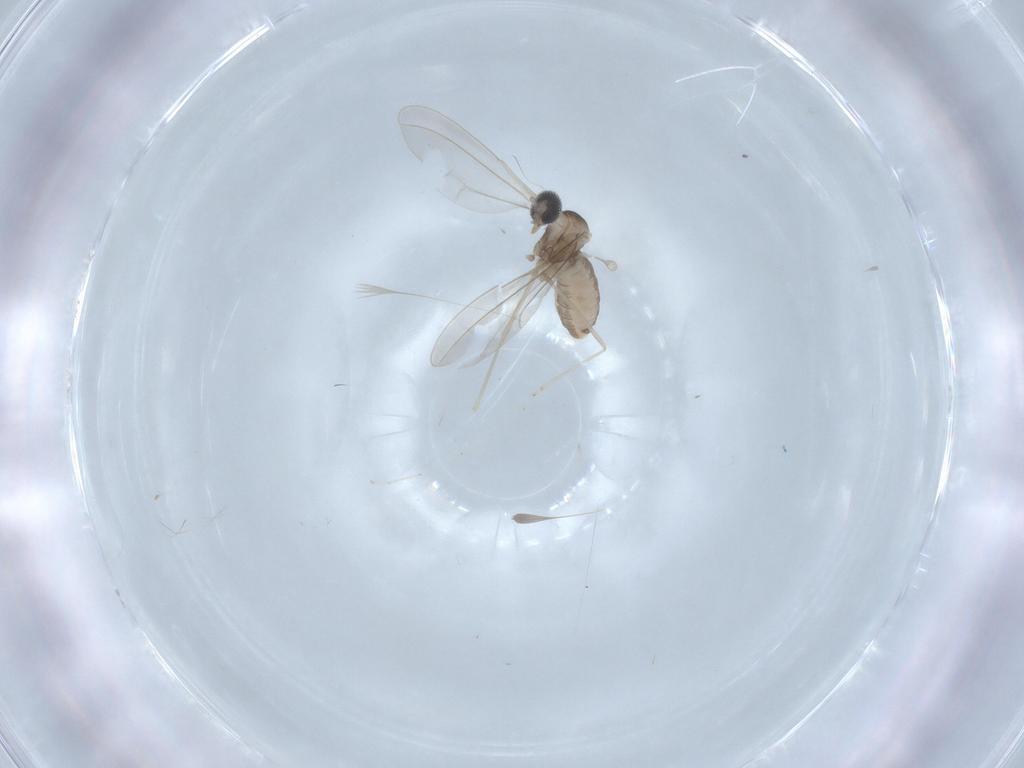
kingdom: Animalia
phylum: Arthropoda
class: Insecta
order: Diptera
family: Cecidomyiidae
